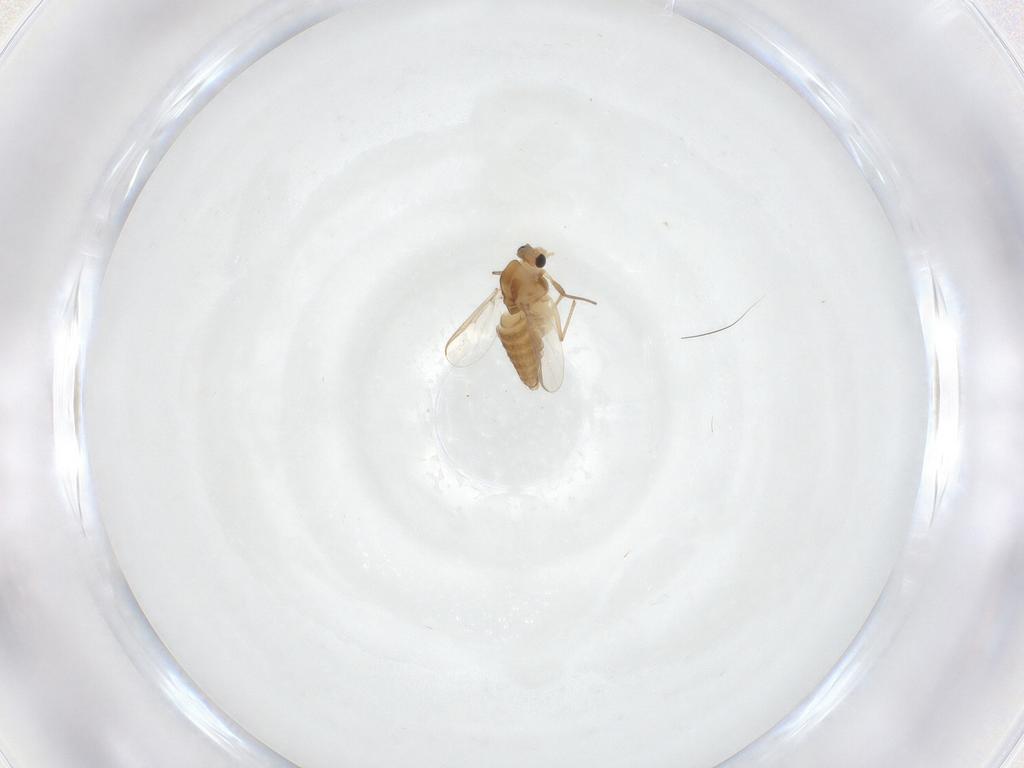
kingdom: Animalia
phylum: Arthropoda
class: Insecta
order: Diptera
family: Chironomidae
